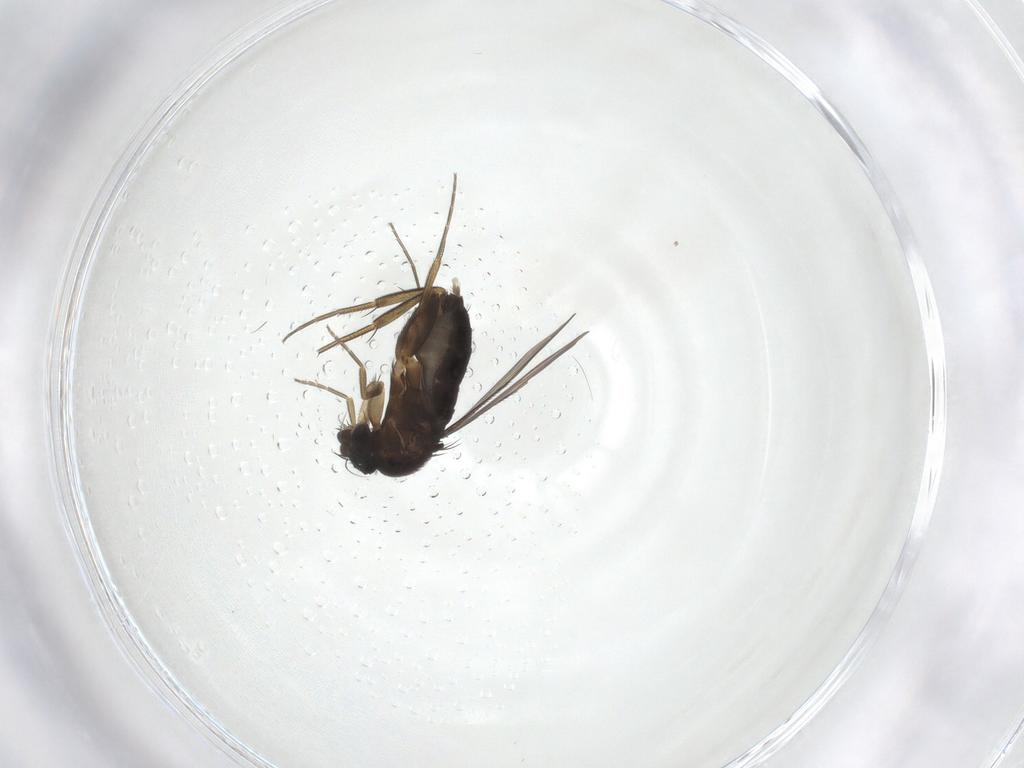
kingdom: Animalia
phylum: Arthropoda
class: Insecta
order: Diptera
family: Phoridae
